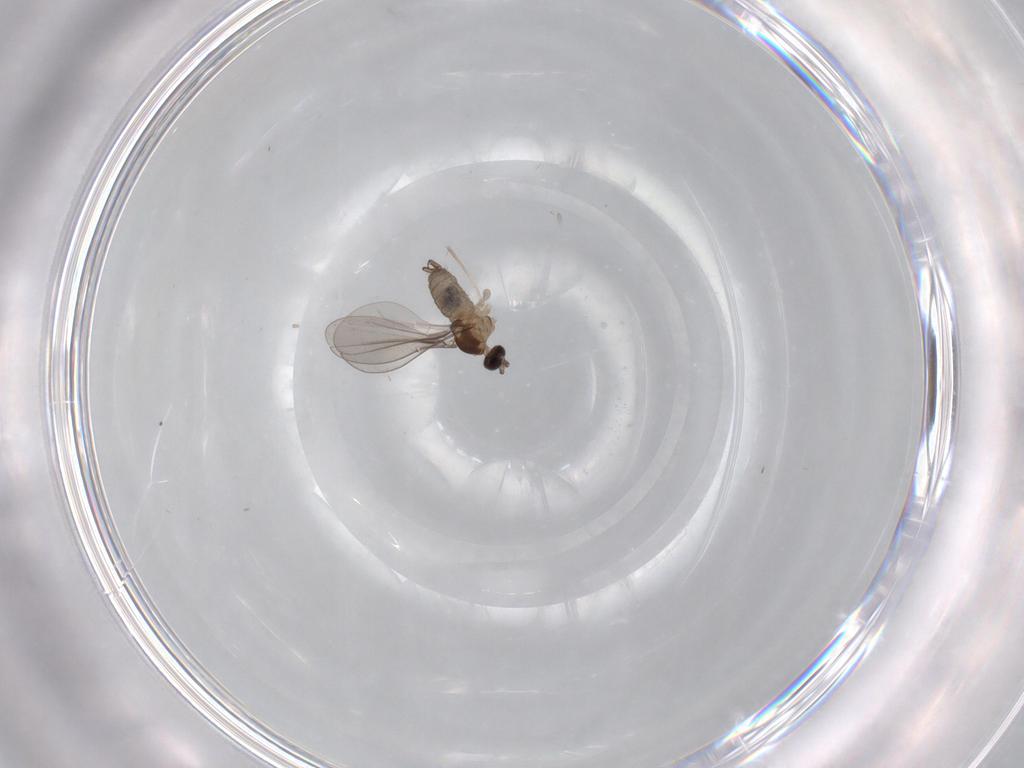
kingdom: Animalia
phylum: Arthropoda
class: Insecta
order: Diptera
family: Cecidomyiidae
